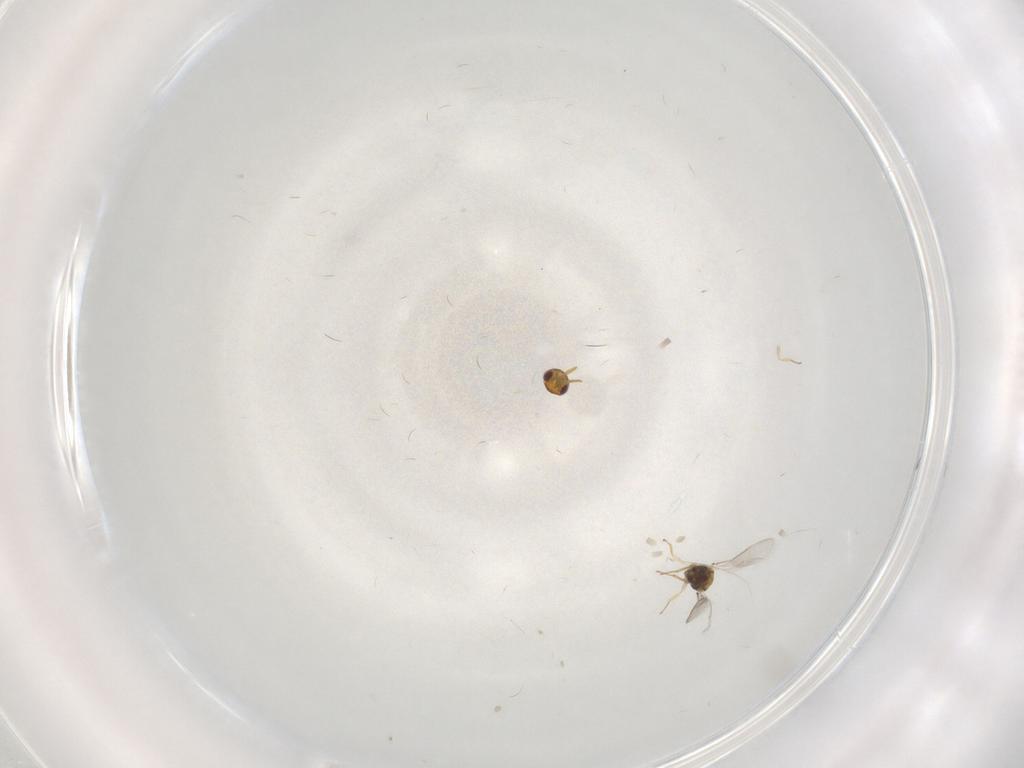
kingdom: Animalia
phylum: Arthropoda
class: Insecta
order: Hymenoptera
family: Aphelinidae
